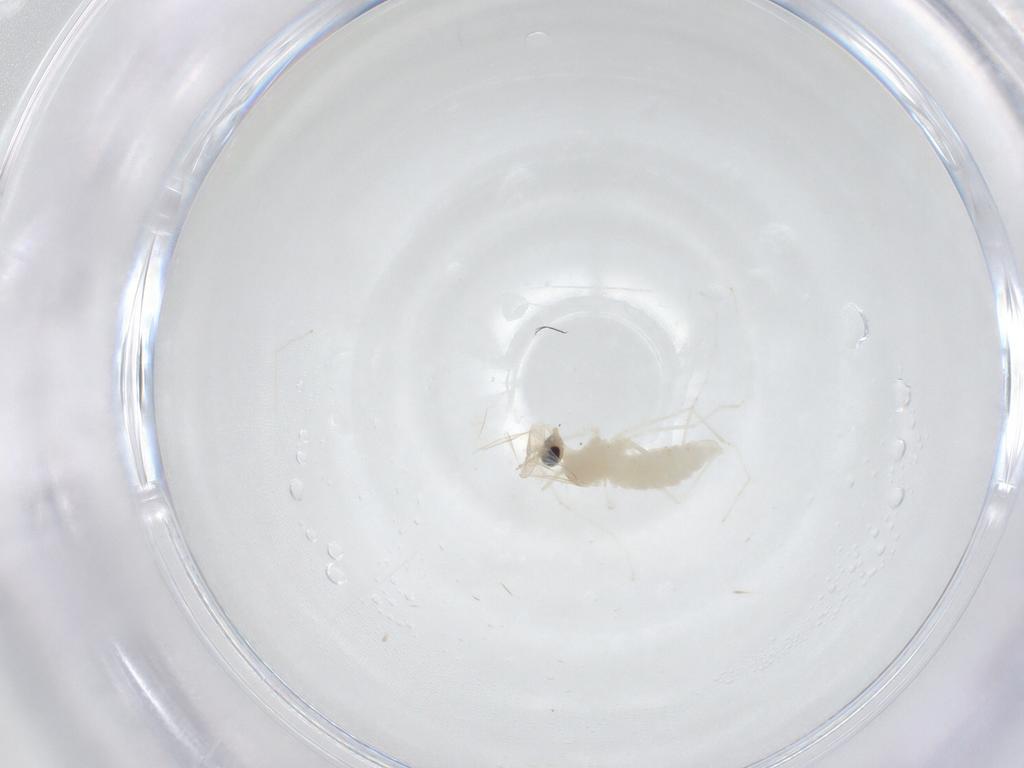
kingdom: Animalia
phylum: Arthropoda
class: Insecta
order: Diptera
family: Cecidomyiidae
